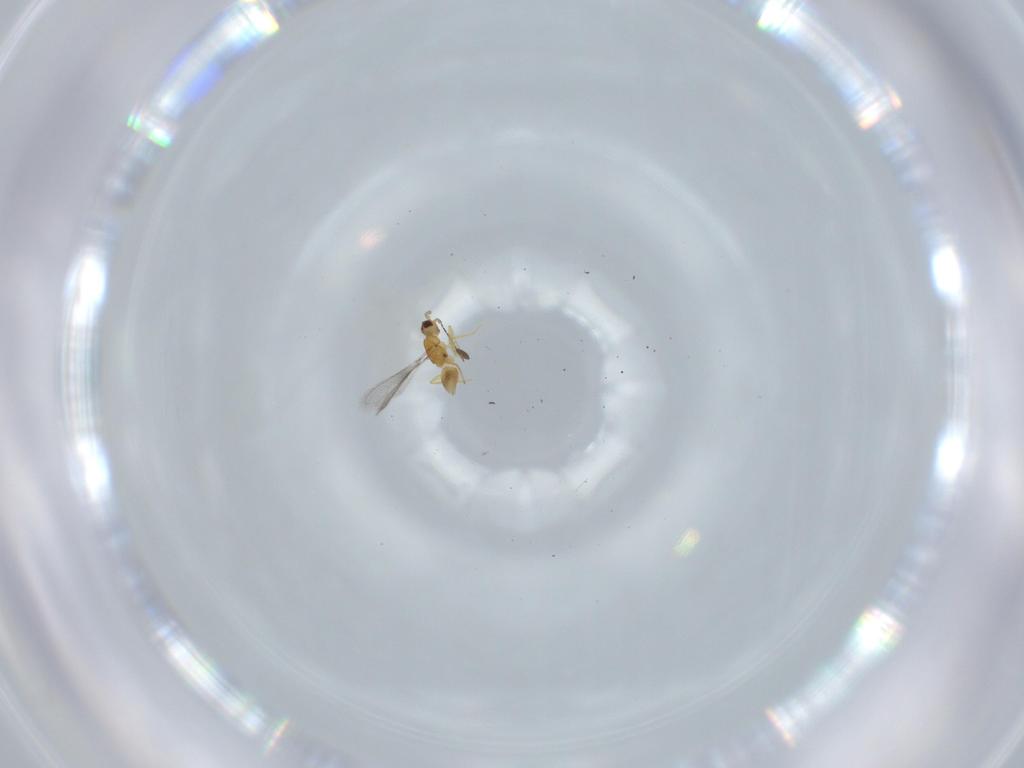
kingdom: Animalia
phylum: Arthropoda
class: Insecta
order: Hymenoptera
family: Mymaridae
